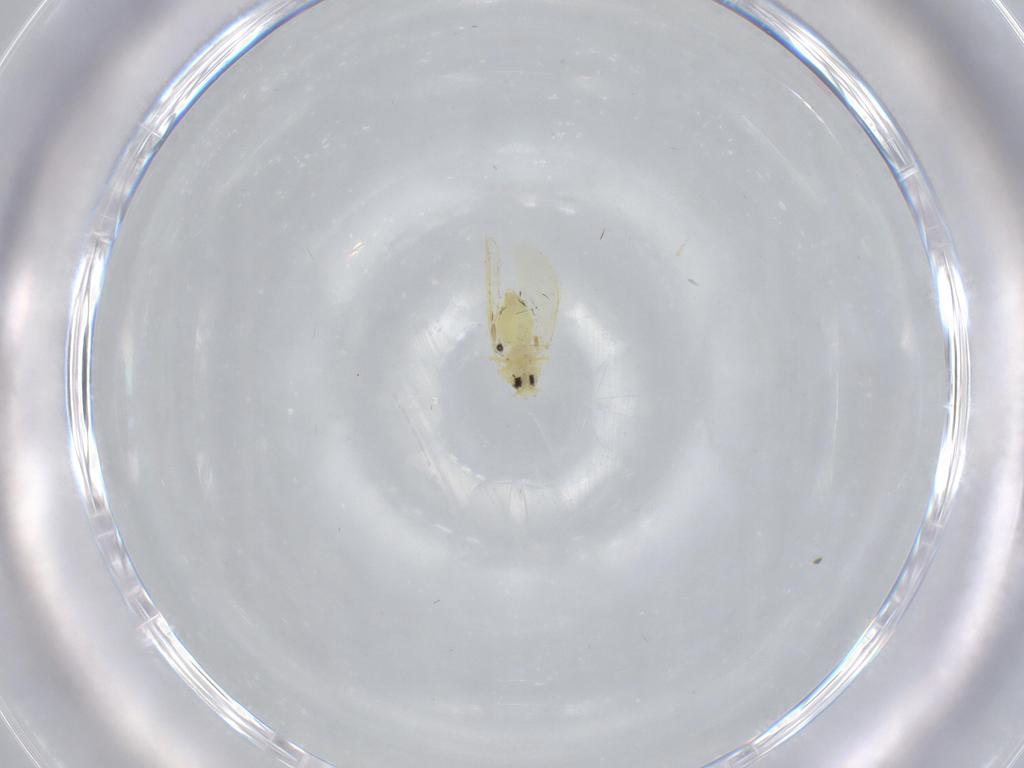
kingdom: Animalia
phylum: Arthropoda
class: Insecta
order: Hemiptera
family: Aleyrodidae
